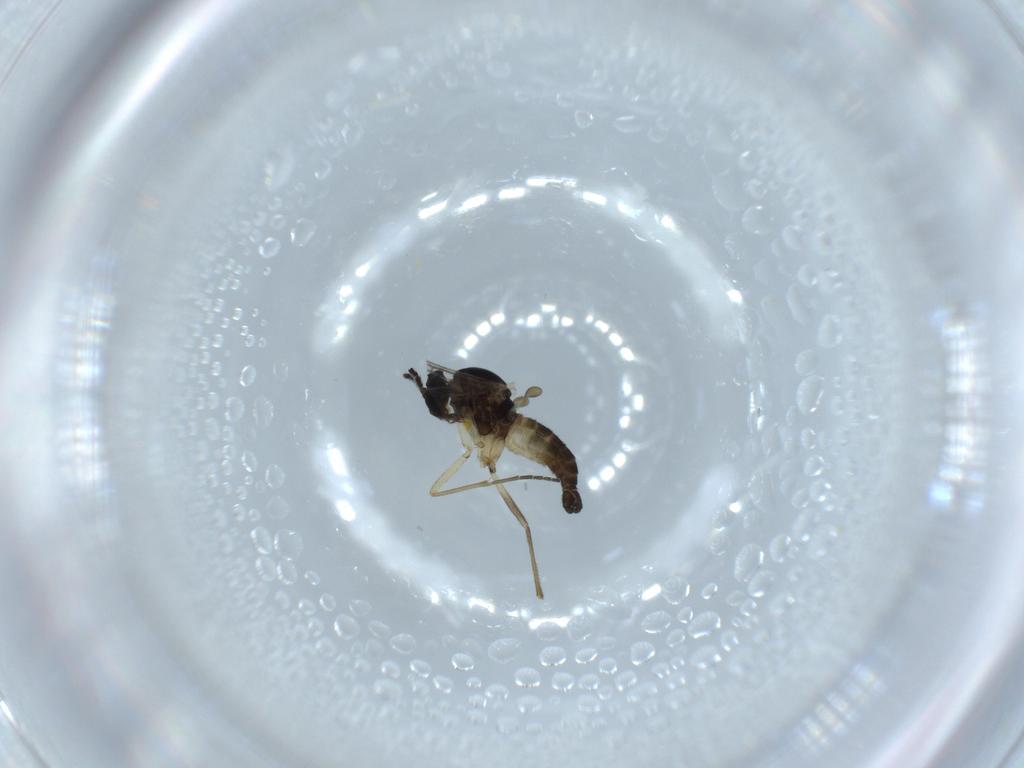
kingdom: Animalia
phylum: Arthropoda
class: Insecta
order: Diptera
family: Sciaridae
